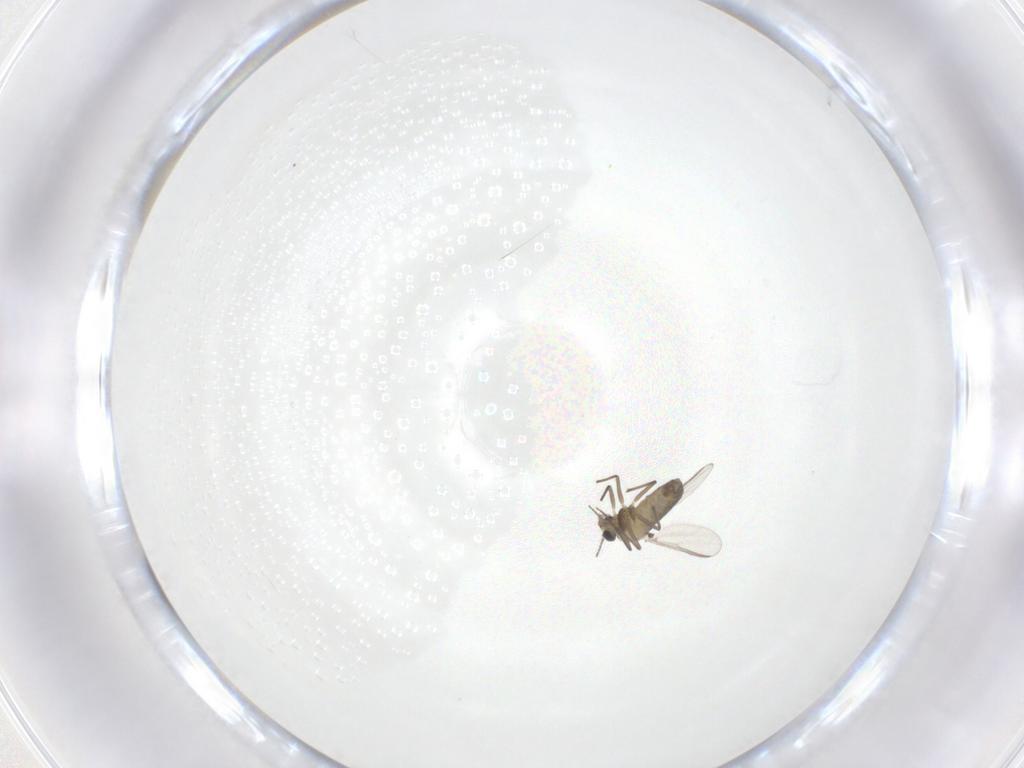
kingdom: Animalia
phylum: Arthropoda
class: Insecta
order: Diptera
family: Chironomidae
